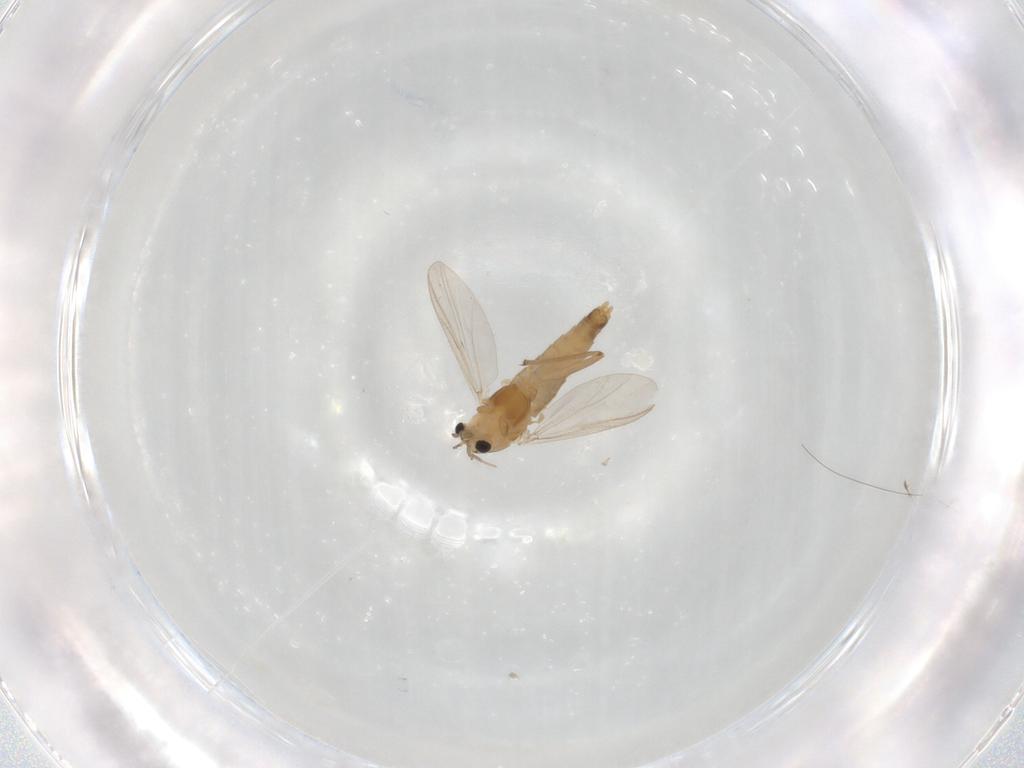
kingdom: Animalia
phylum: Arthropoda
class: Insecta
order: Diptera
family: Chironomidae
